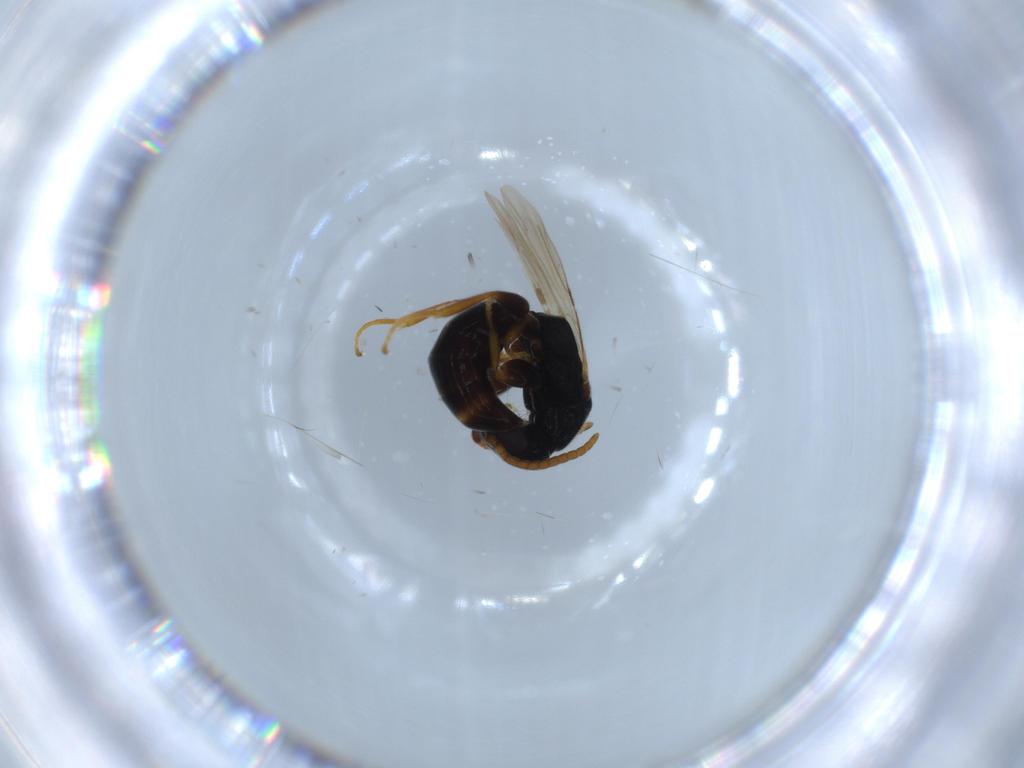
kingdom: Animalia
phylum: Arthropoda
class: Insecta
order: Hymenoptera
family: Bethylidae
